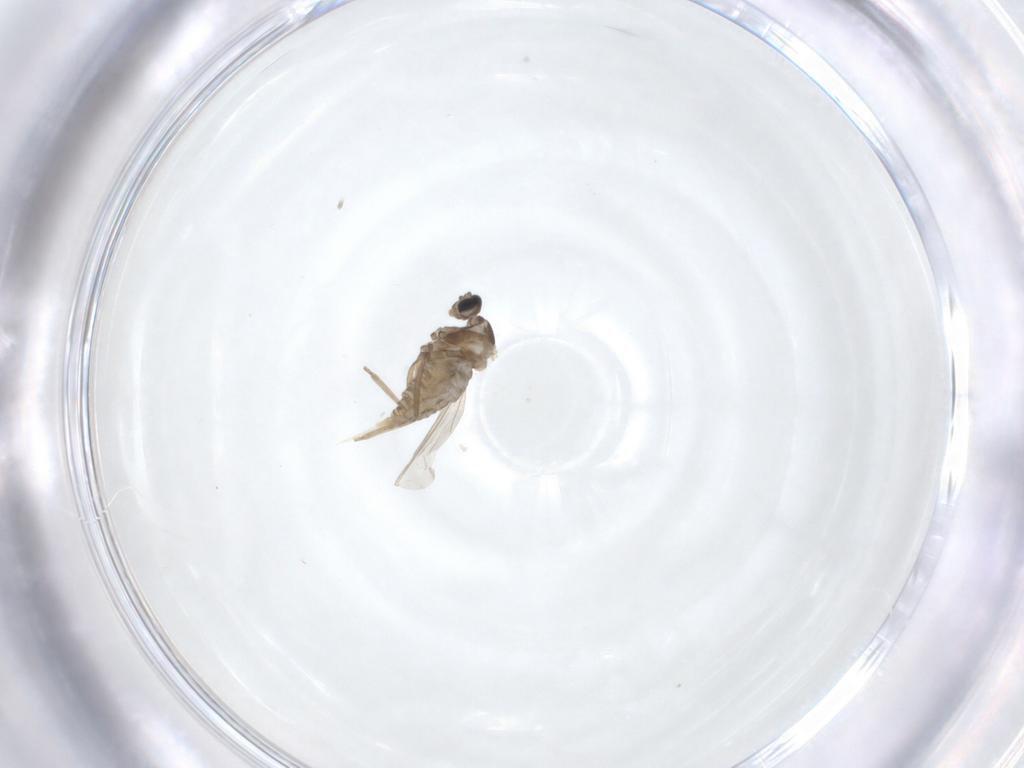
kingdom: Animalia
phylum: Arthropoda
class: Insecta
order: Diptera
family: Cecidomyiidae
